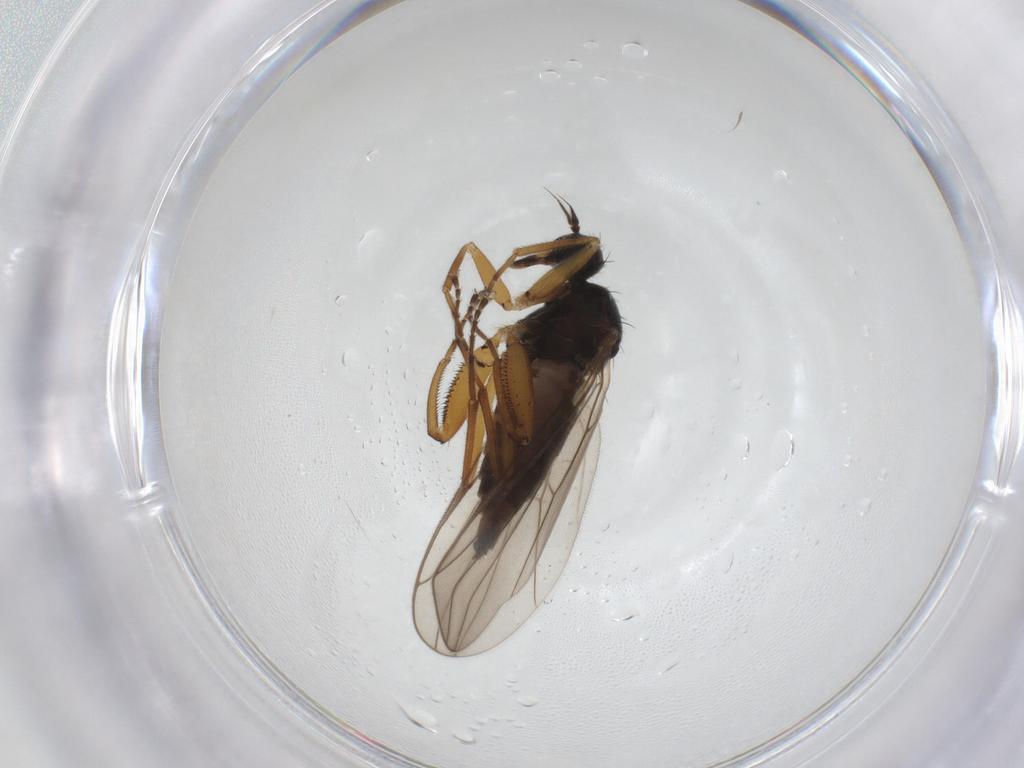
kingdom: Animalia
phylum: Arthropoda
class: Insecta
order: Diptera
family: Hybotidae
